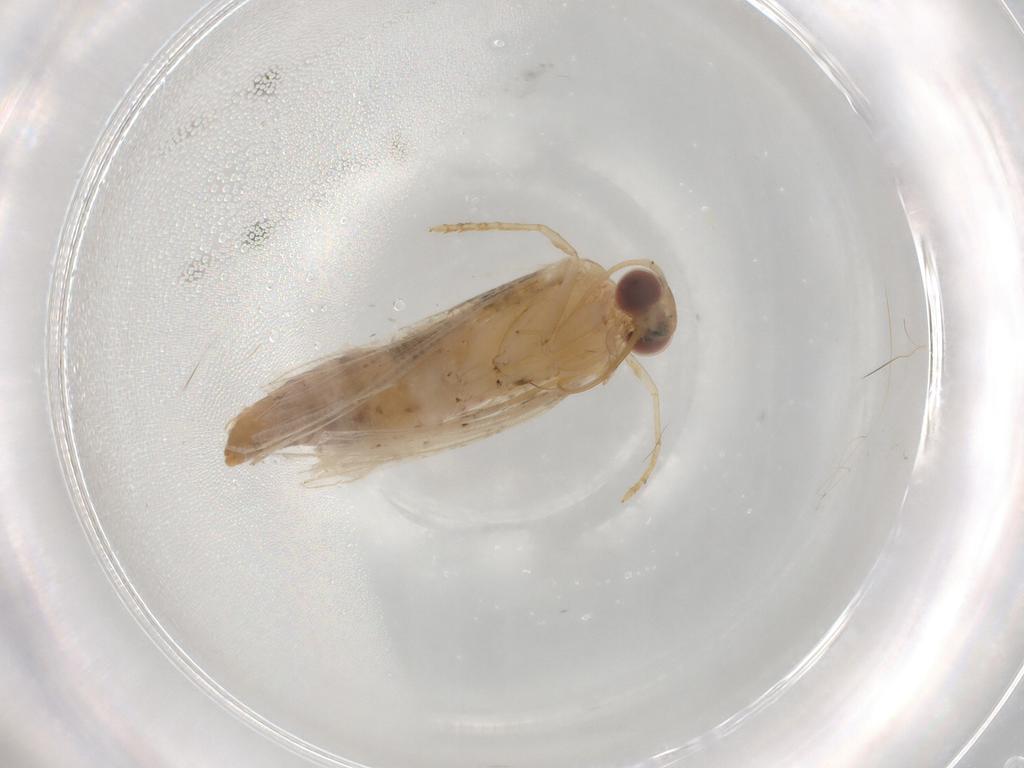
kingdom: Animalia
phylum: Arthropoda
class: Insecta
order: Lepidoptera
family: Erebidae
